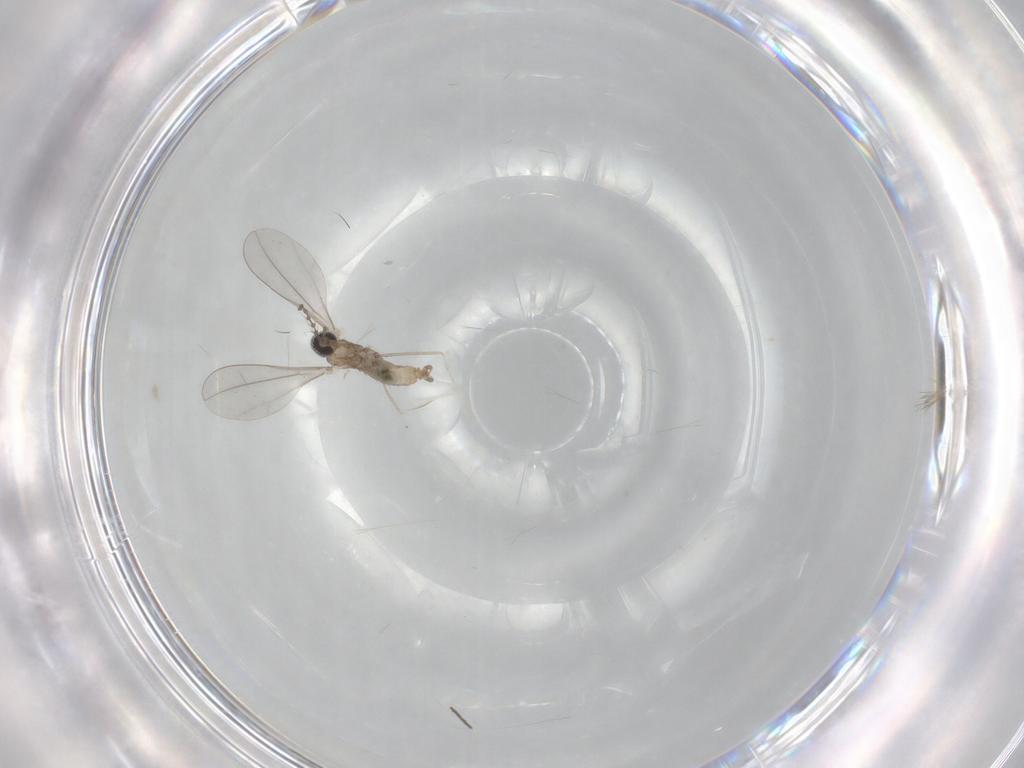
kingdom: Animalia
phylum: Arthropoda
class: Insecta
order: Diptera
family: Cecidomyiidae
